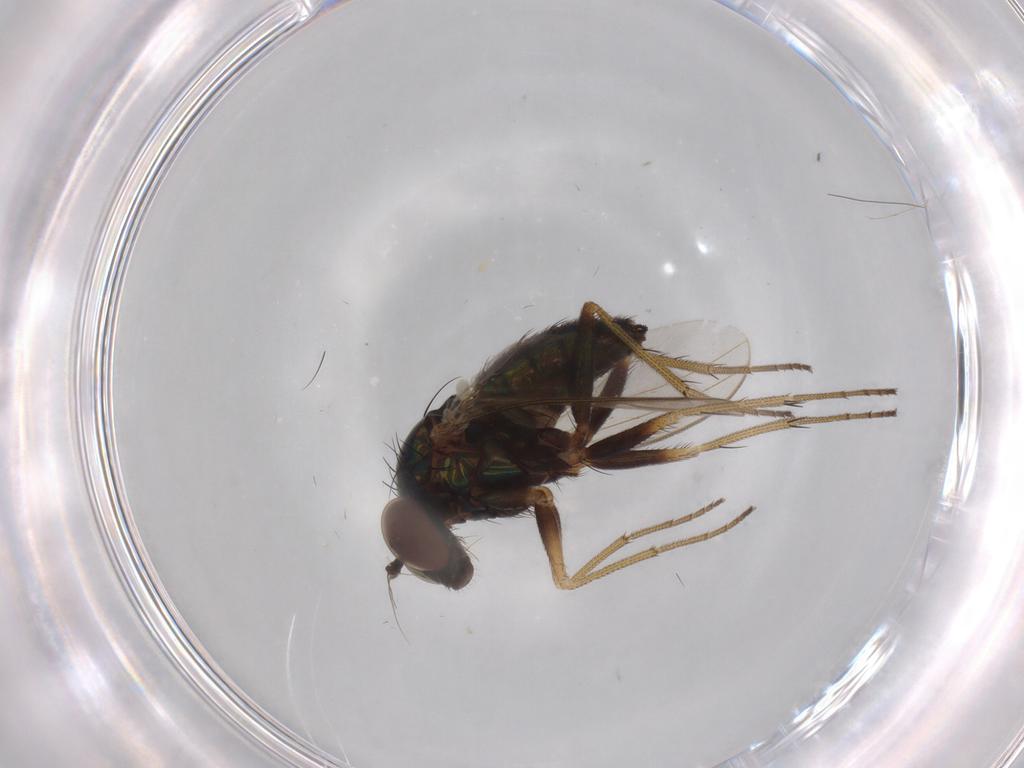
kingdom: Animalia
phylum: Arthropoda
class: Insecta
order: Diptera
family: Dolichopodidae
